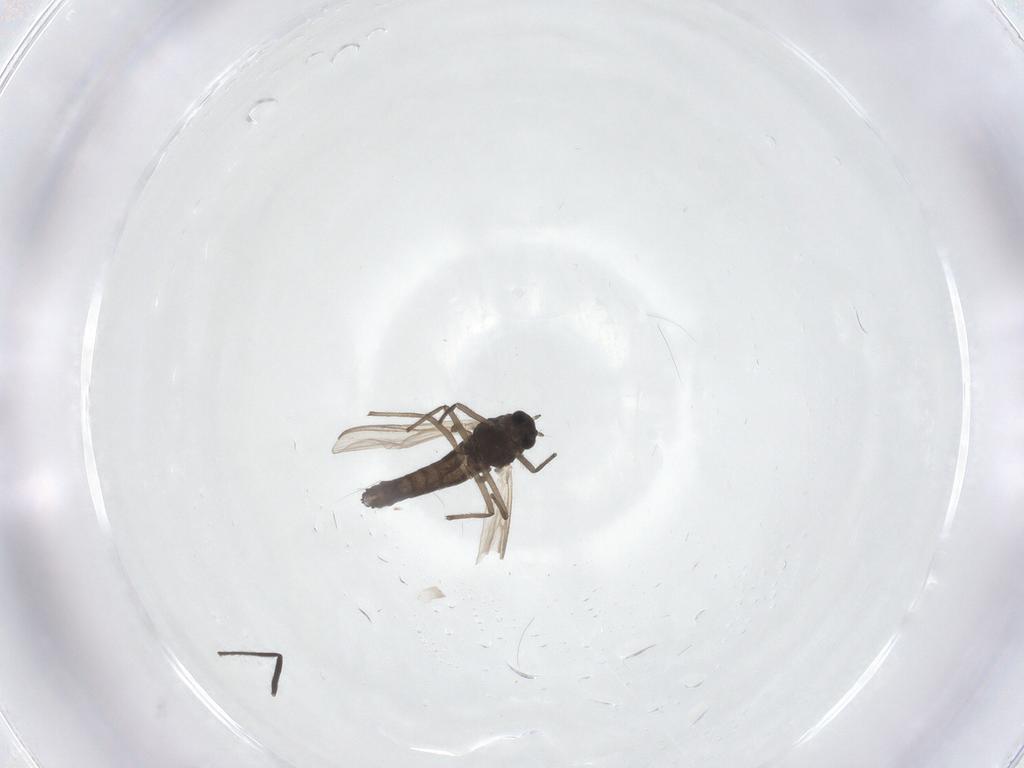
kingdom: Animalia
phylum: Arthropoda
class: Insecta
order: Diptera
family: Chironomidae
